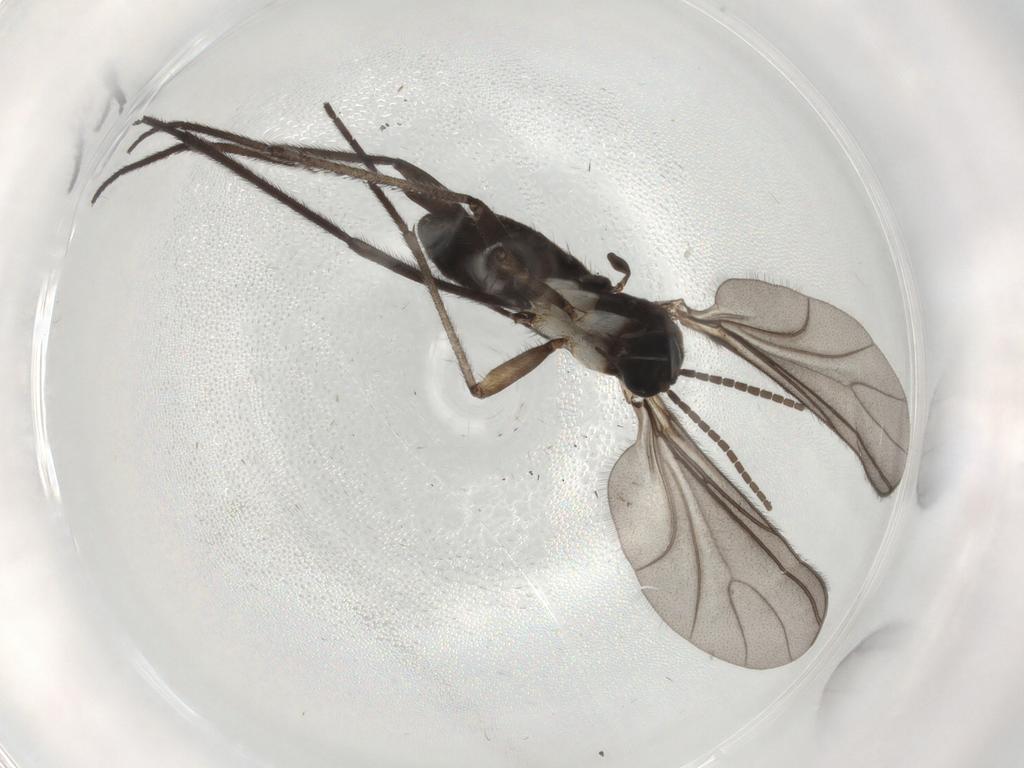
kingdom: Animalia
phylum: Arthropoda
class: Insecta
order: Diptera
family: Sciaridae
